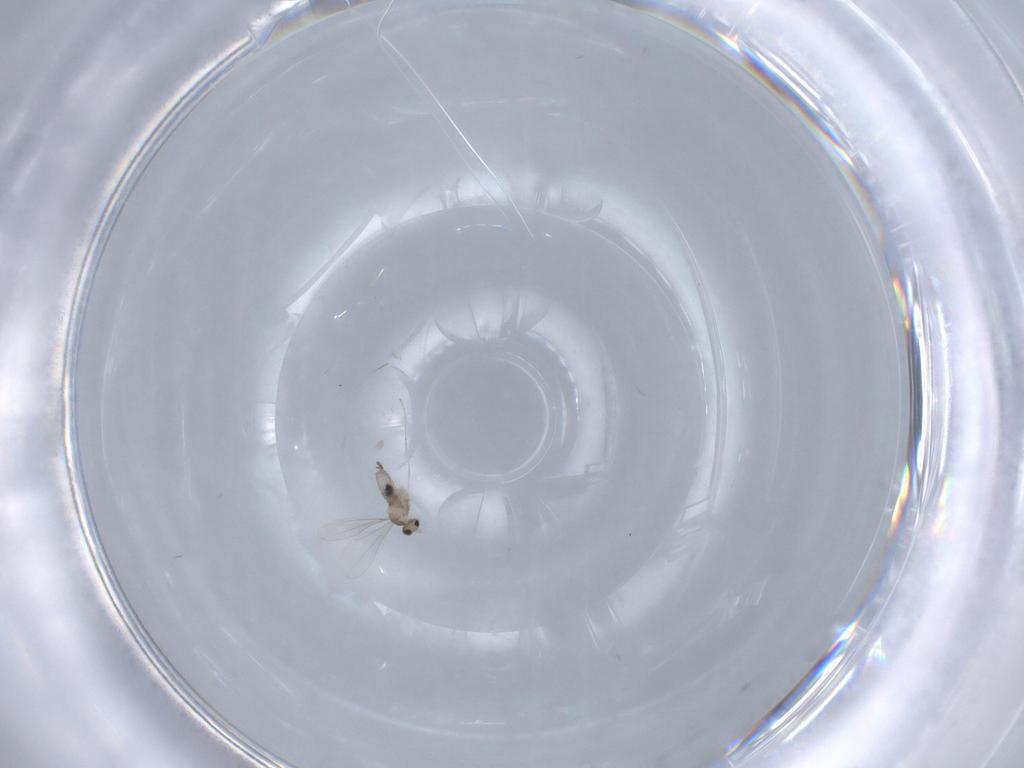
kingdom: Animalia
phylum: Arthropoda
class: Insecta
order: Diptera
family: Cecidomyiidae
